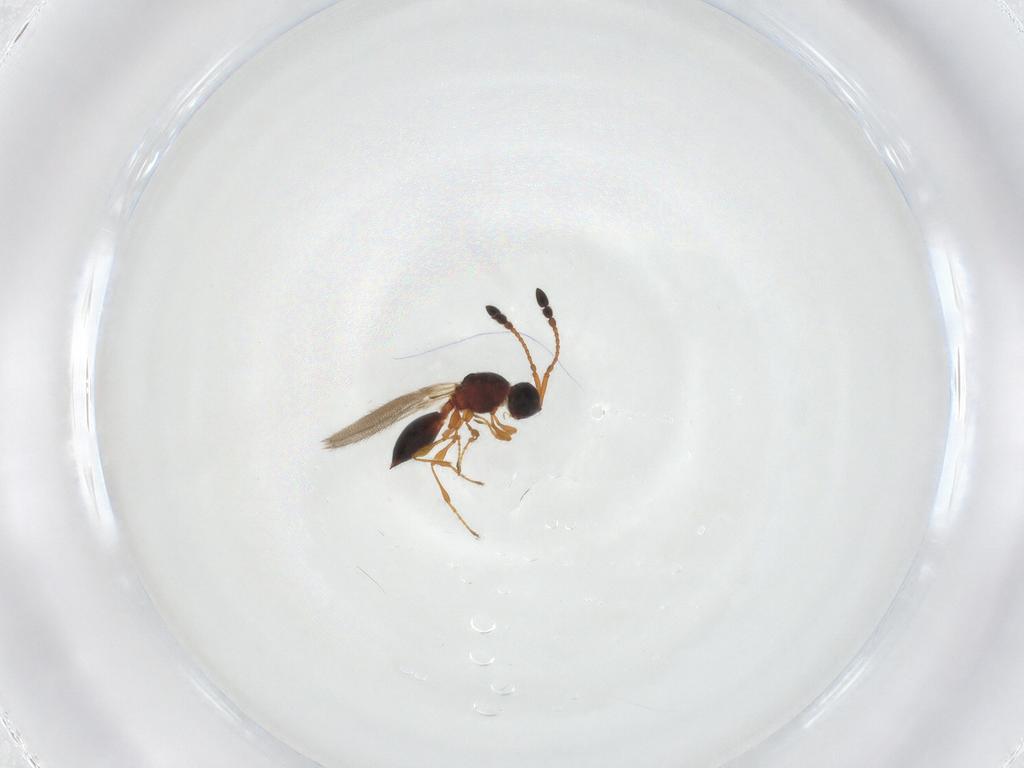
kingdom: Animalia
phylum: Arthropoda
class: Insecta
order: Hymenoptera
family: Diapriidae
